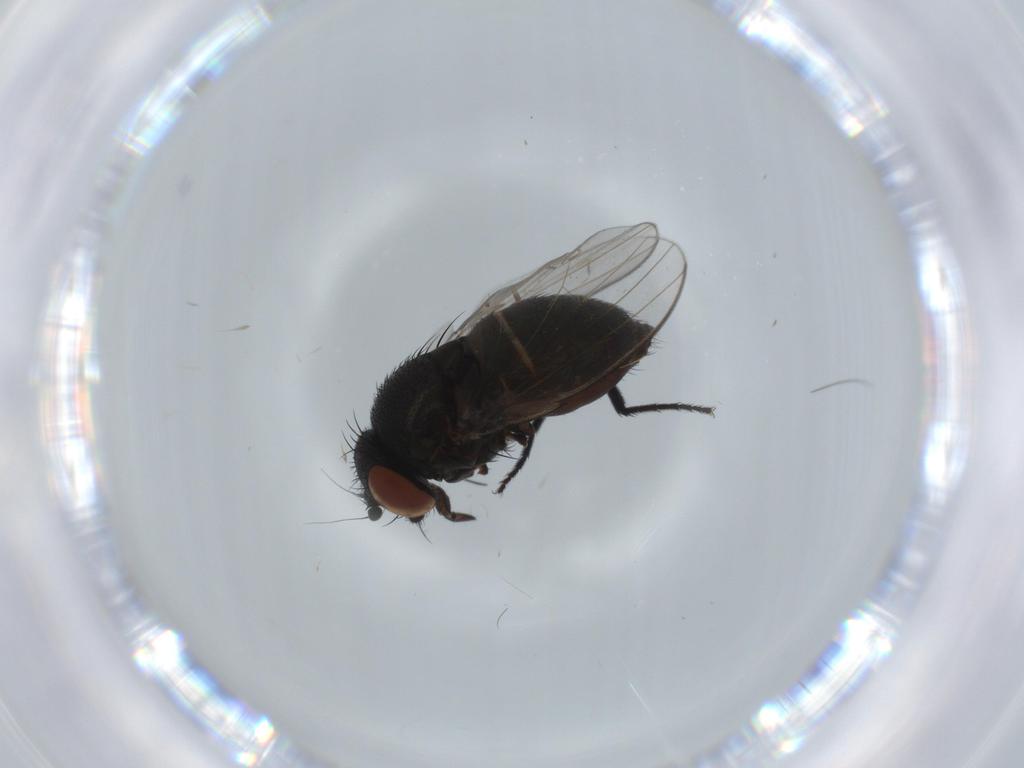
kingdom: Animalia
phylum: Arthropoda
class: Insecta
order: Diptera
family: Milichiidae
